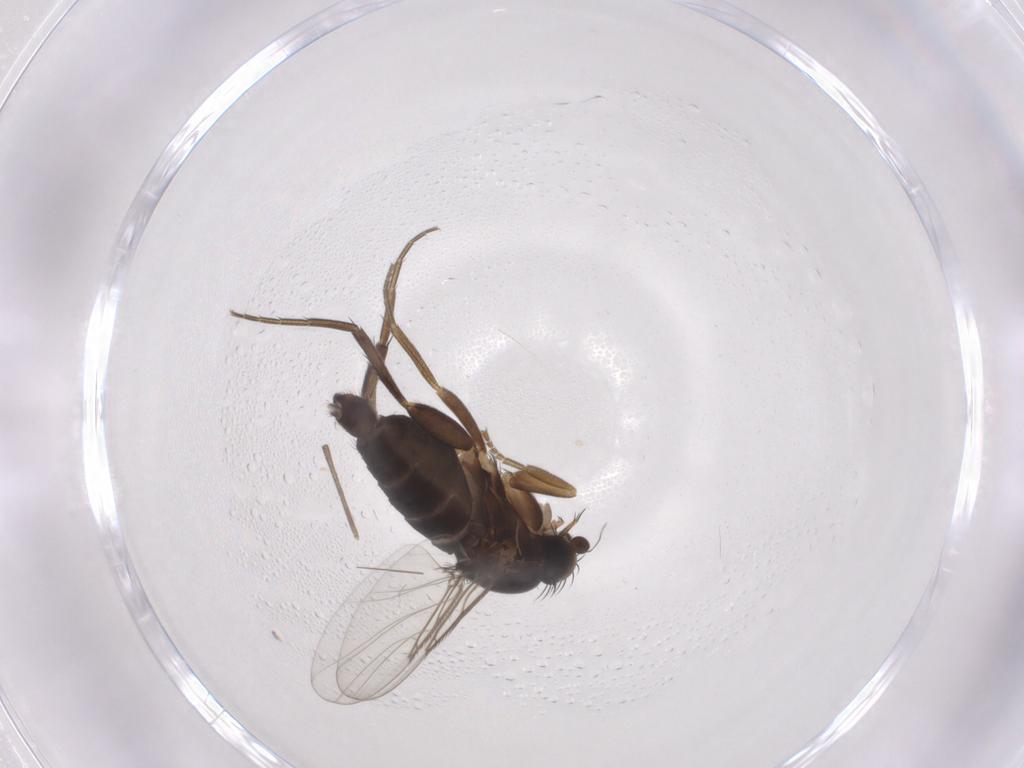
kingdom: Animalia
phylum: Arthropoda
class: Insecta
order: Diptera
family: Phoridae
